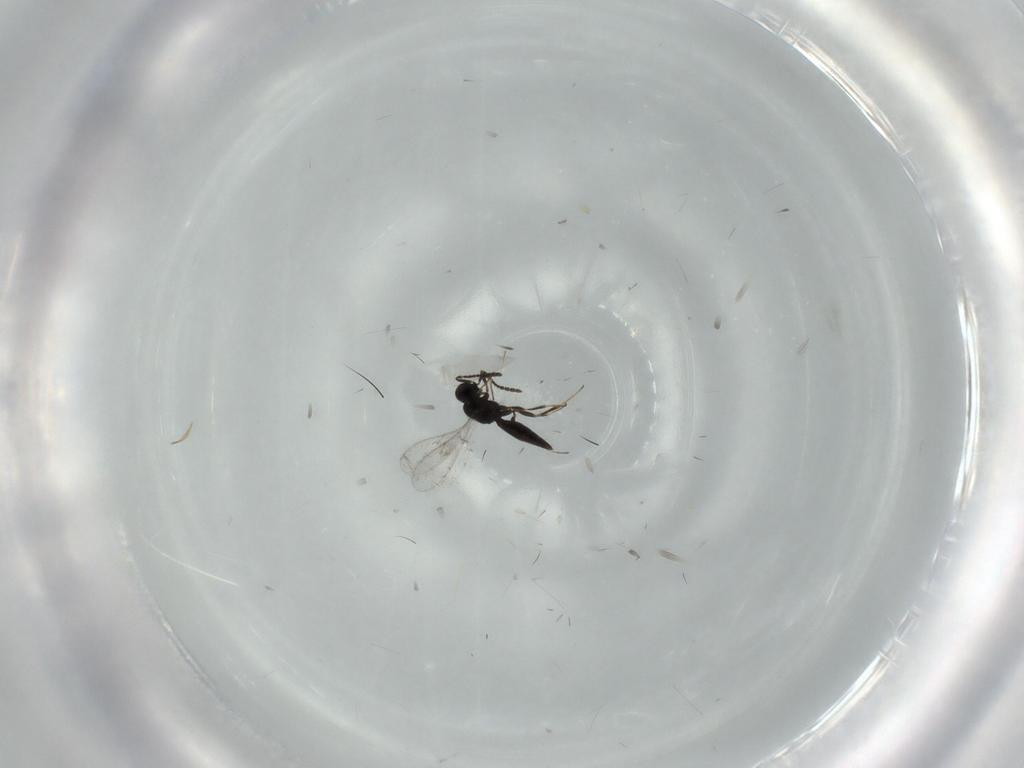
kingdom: Animalia
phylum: Arthropoda
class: Insecta
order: Hymenoptera
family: Scelionidae
